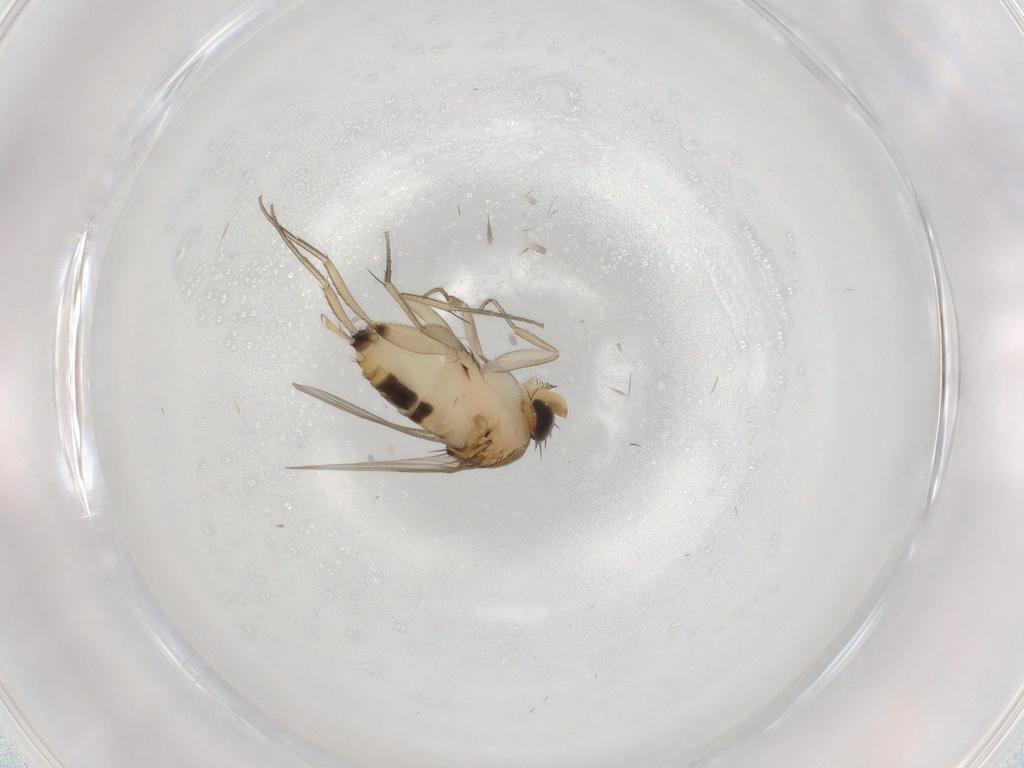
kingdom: Animalia
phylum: Arthropoda
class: Insecta
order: Diptera
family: Phoridae
